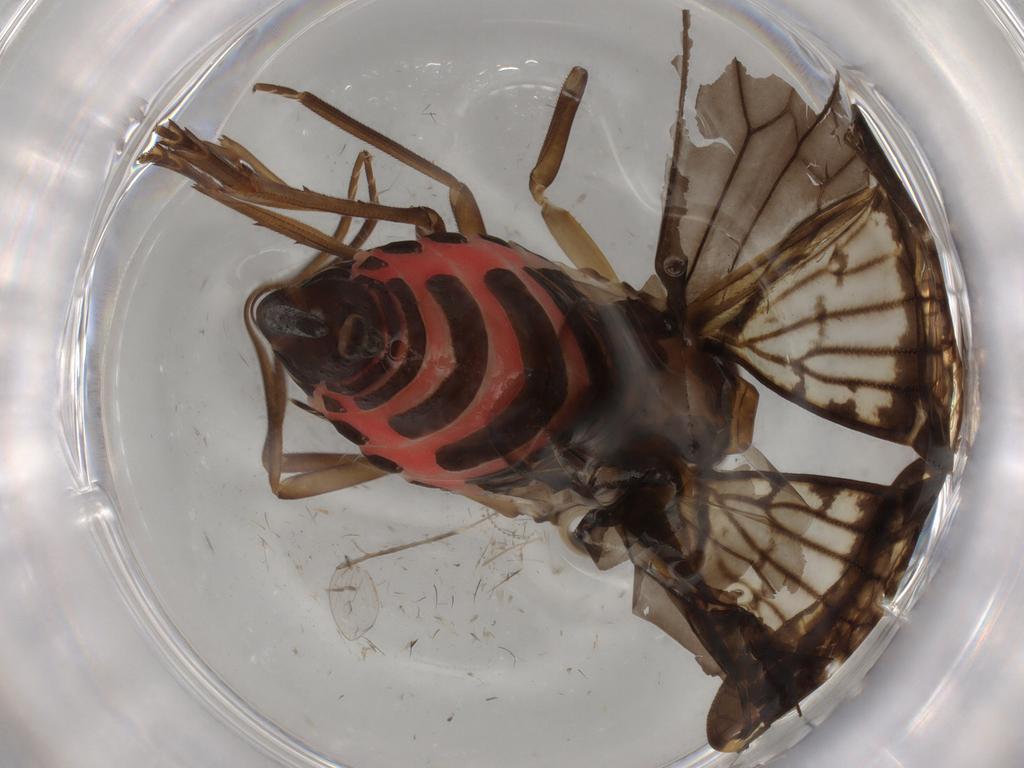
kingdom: Animalia
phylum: Arthropoda
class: Insecta
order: Hemiptera
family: Cixiidae
